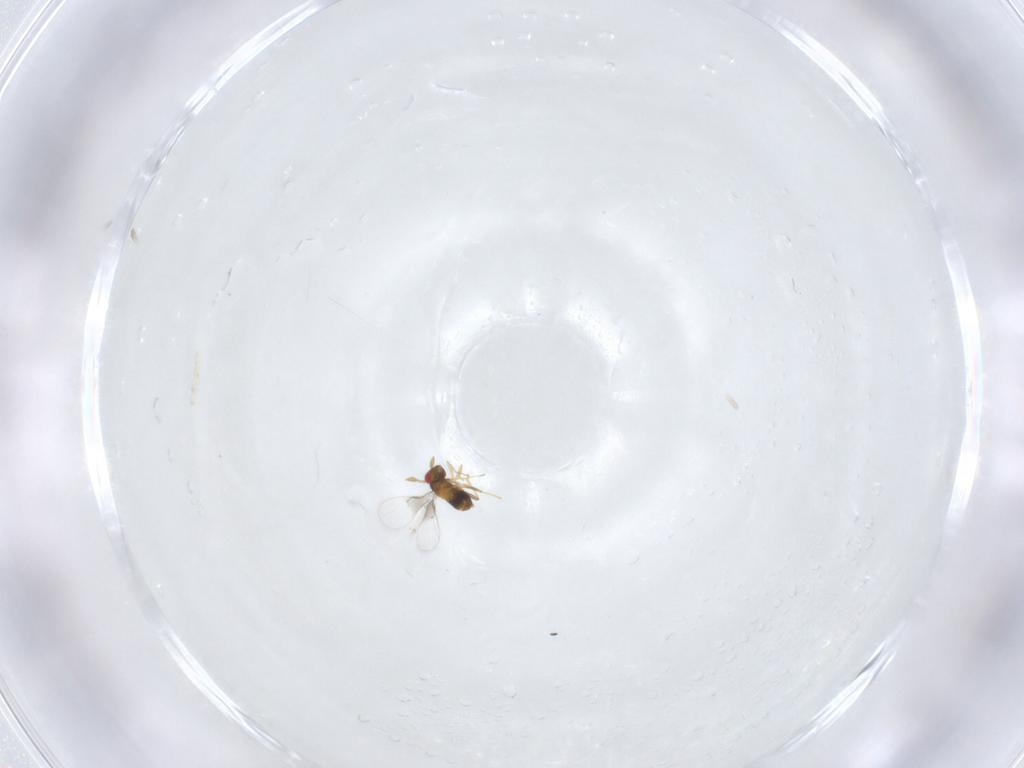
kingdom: Animalia
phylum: Arthropoda
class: Insecta
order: Hymenoptera
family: Trichogrammatidae
